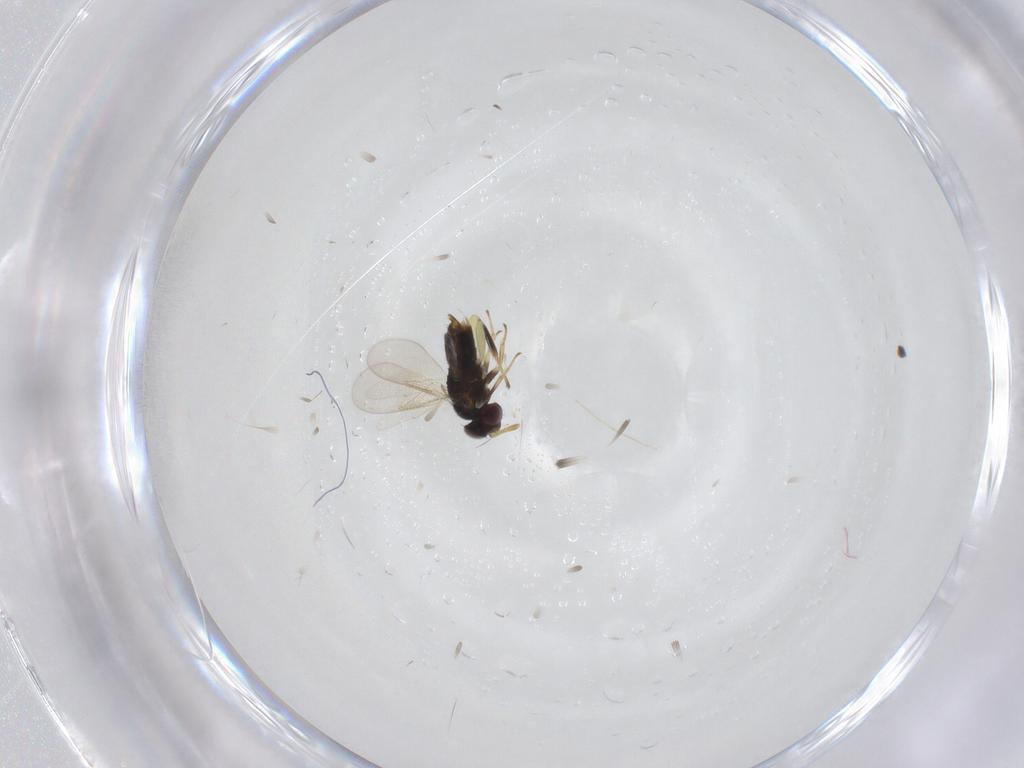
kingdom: Animalia
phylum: Arthropoda
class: Insecta
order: Hymenoptera
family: Aphelinidae
